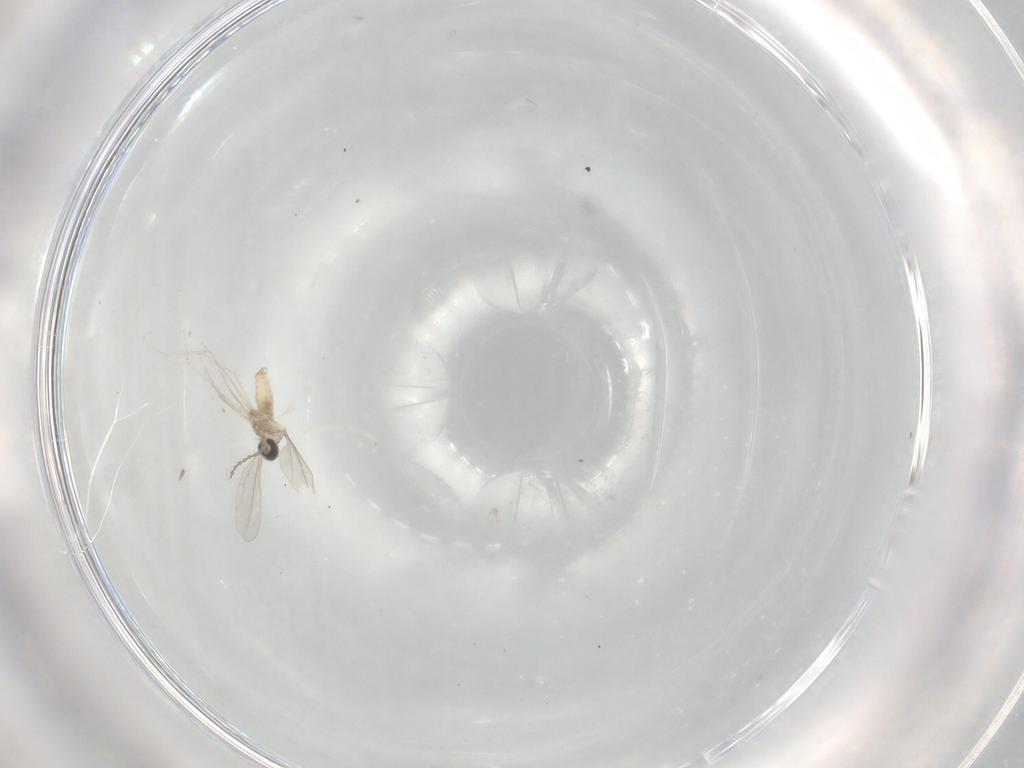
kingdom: Animalia
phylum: Arthropoda
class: Insecta
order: Diptera
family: Cecidomyiidae
